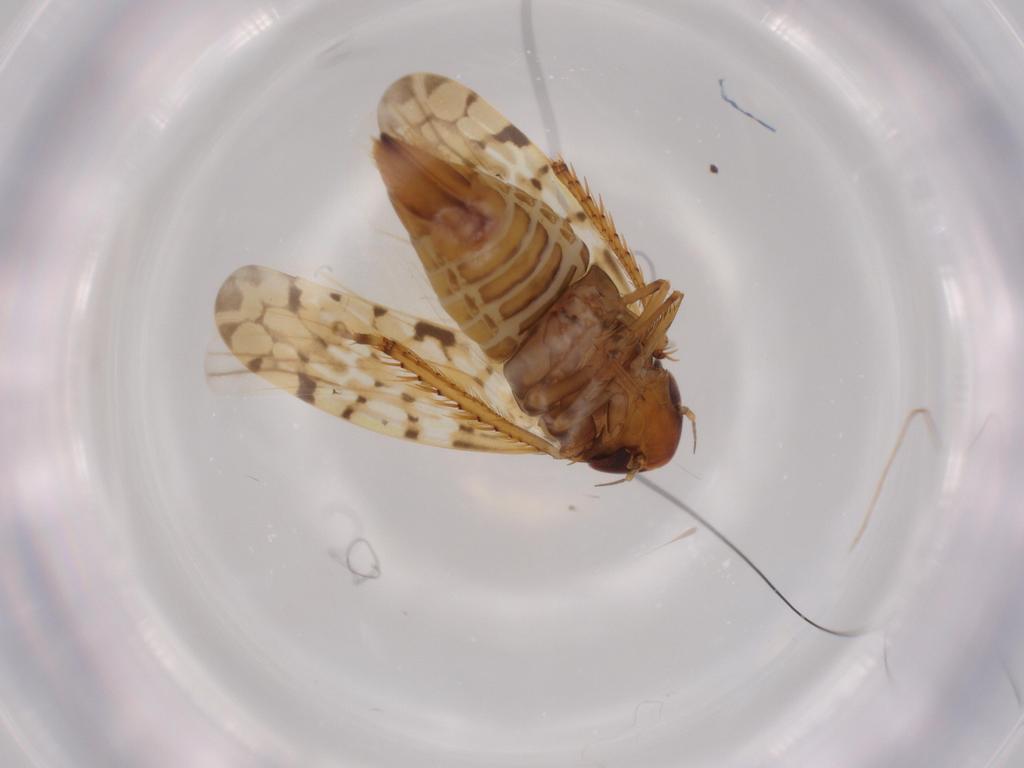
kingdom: Animalia
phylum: Arthropoda
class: Insecta
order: Hemiptera
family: Cicadellidae
